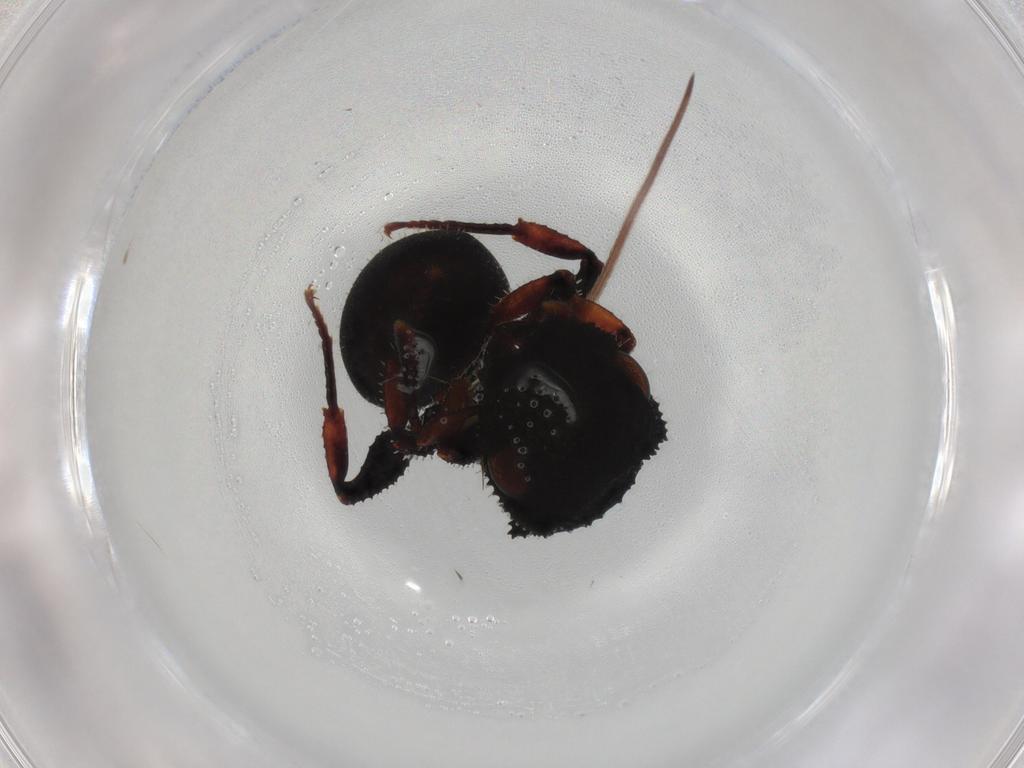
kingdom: Animalia
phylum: Arthropoda
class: Insecta
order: Hymenoptera
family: Formicidae
